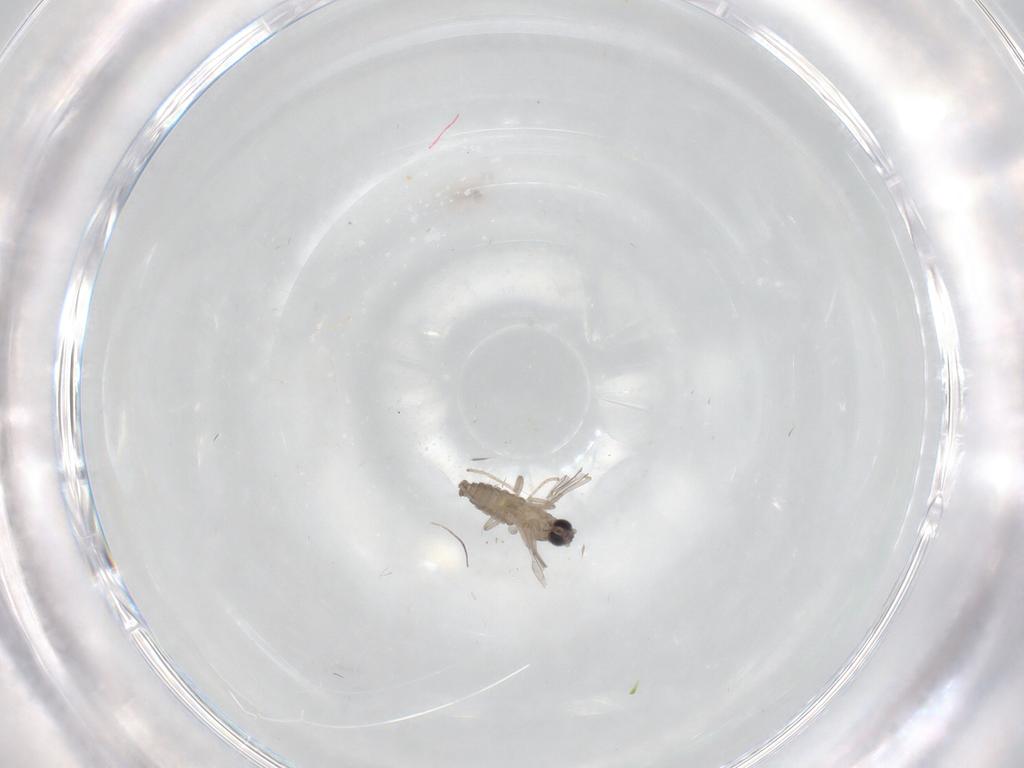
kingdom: Animalia
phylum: Arthropoda
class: Insecta
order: Diptera
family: Cecidomyiidae
